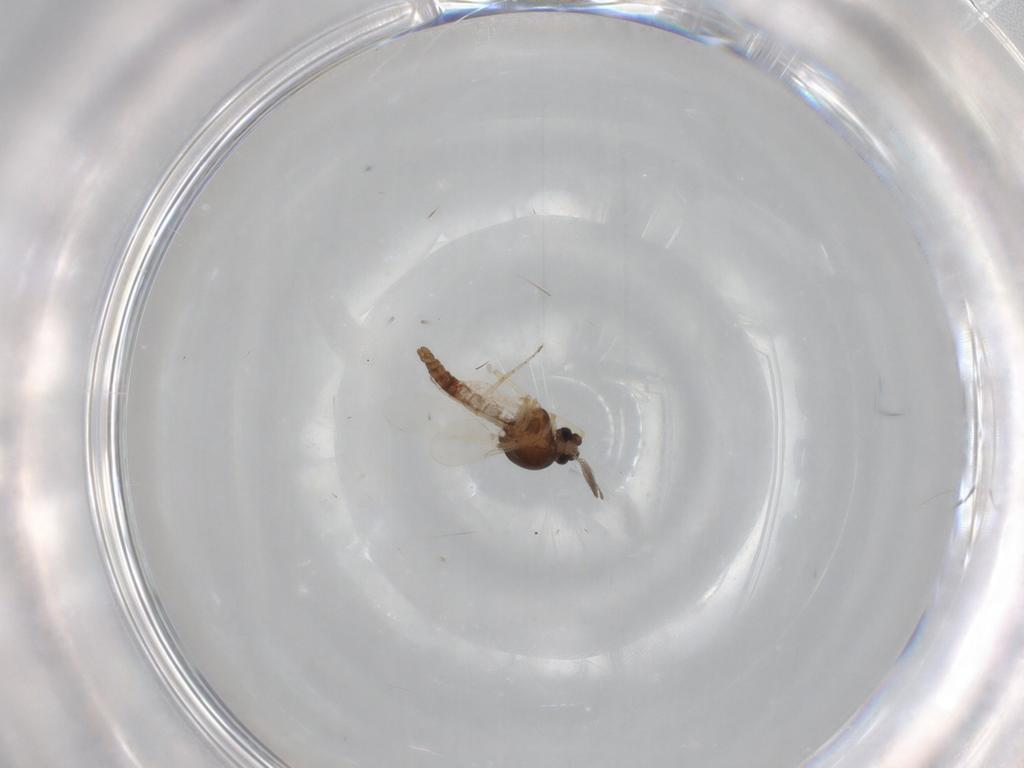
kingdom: Animalia
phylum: Arthropoda
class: Insecta
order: Diptera
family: Ceratopogonidae
